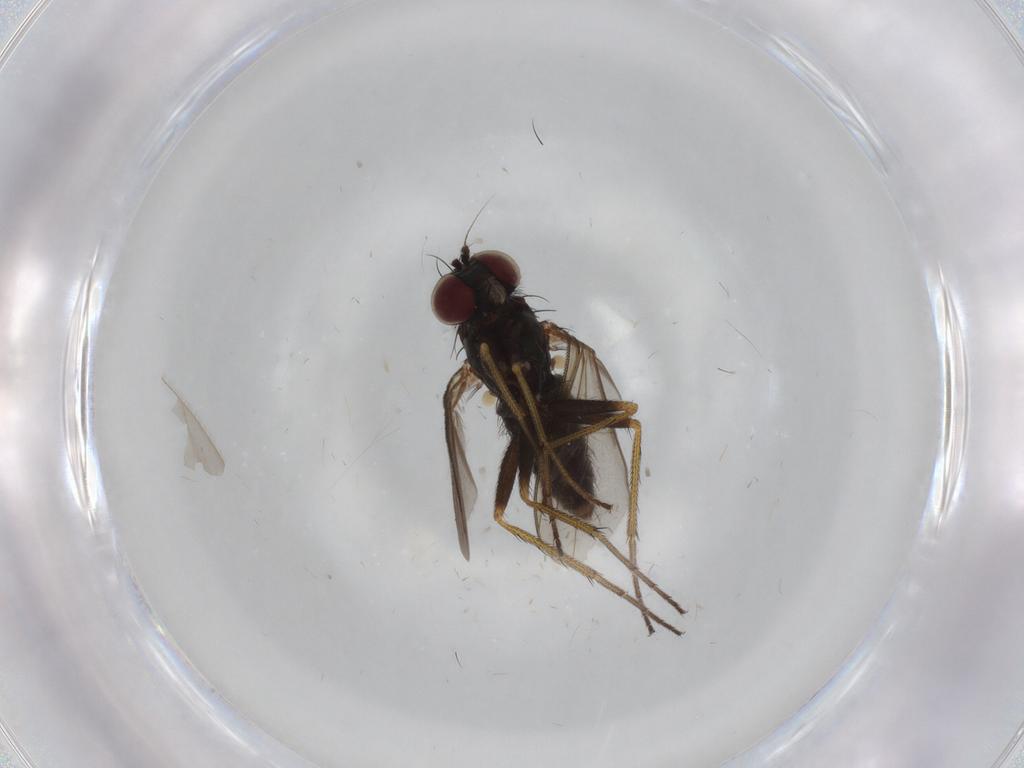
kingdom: Animalia
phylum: Arthropoda
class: Insecta
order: Diptera
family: Dolichopodidae
